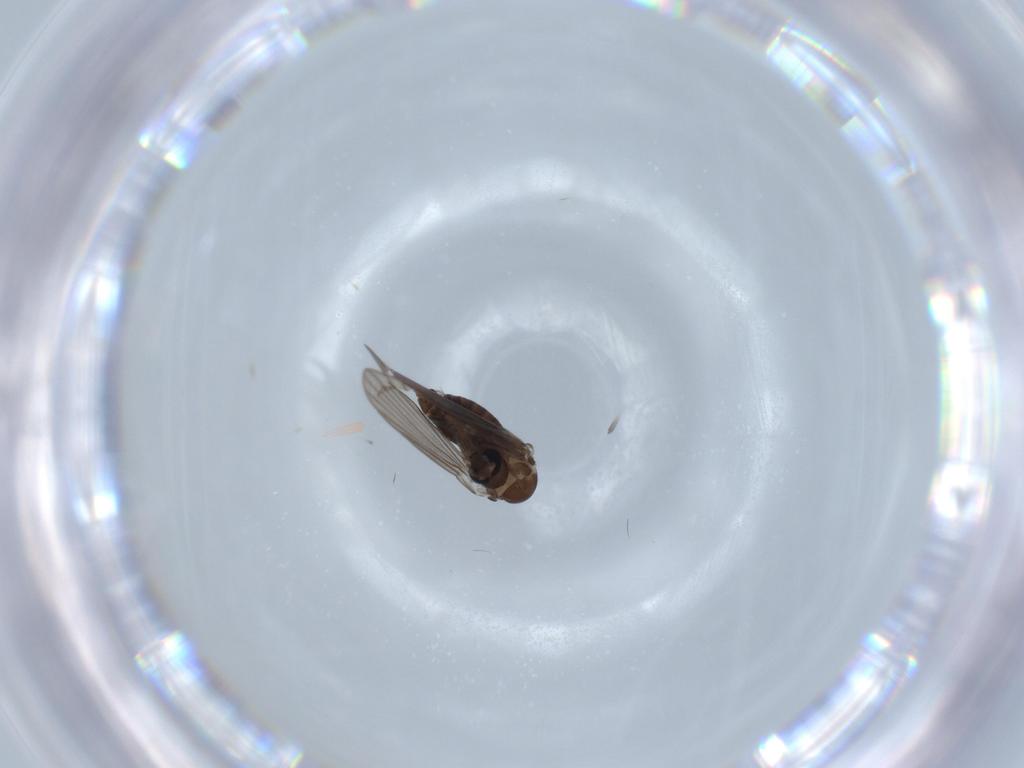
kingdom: Animalia
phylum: Arthropoda
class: Insecta
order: Diptera
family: Psychodidae
